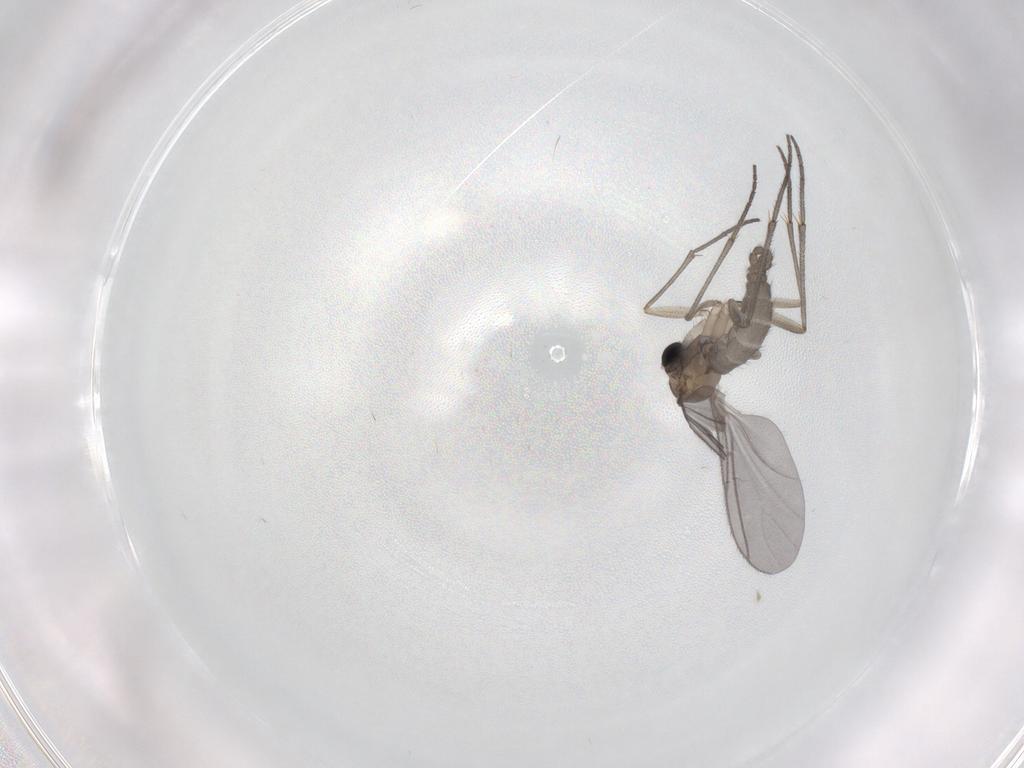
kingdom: Animalia
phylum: Arthropoda
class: Insecta
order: Diptera
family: Sciaridae
